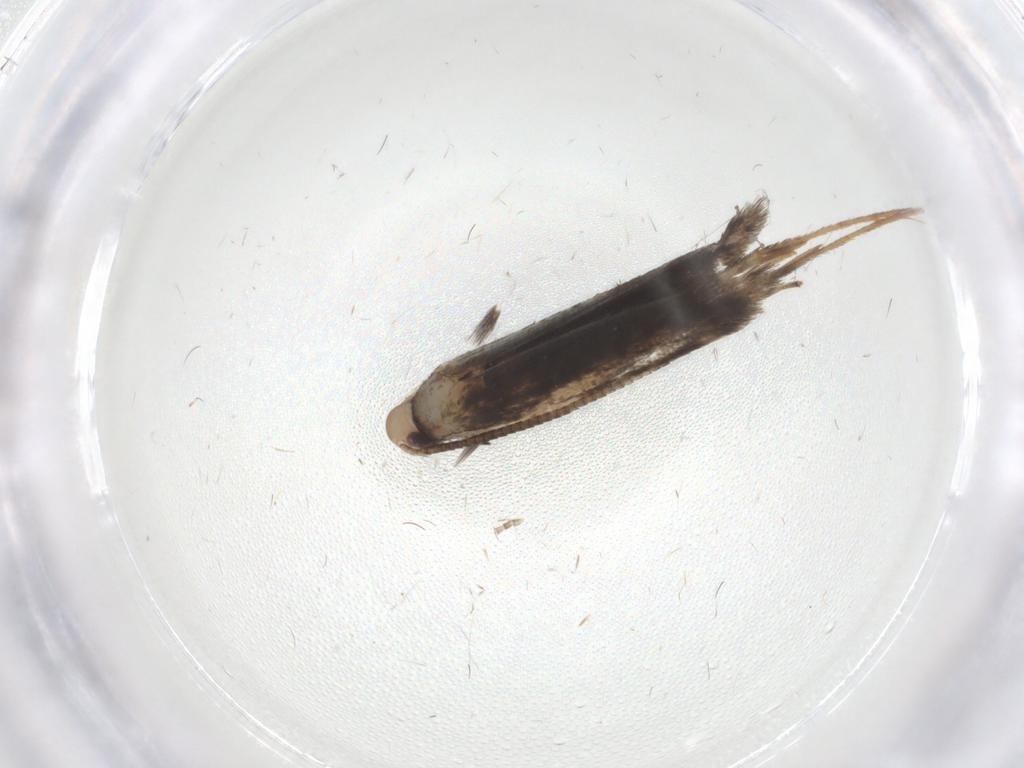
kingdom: Animalia
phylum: Arthropoda
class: Insecta
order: Lepidoptera
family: Gracillariidae
